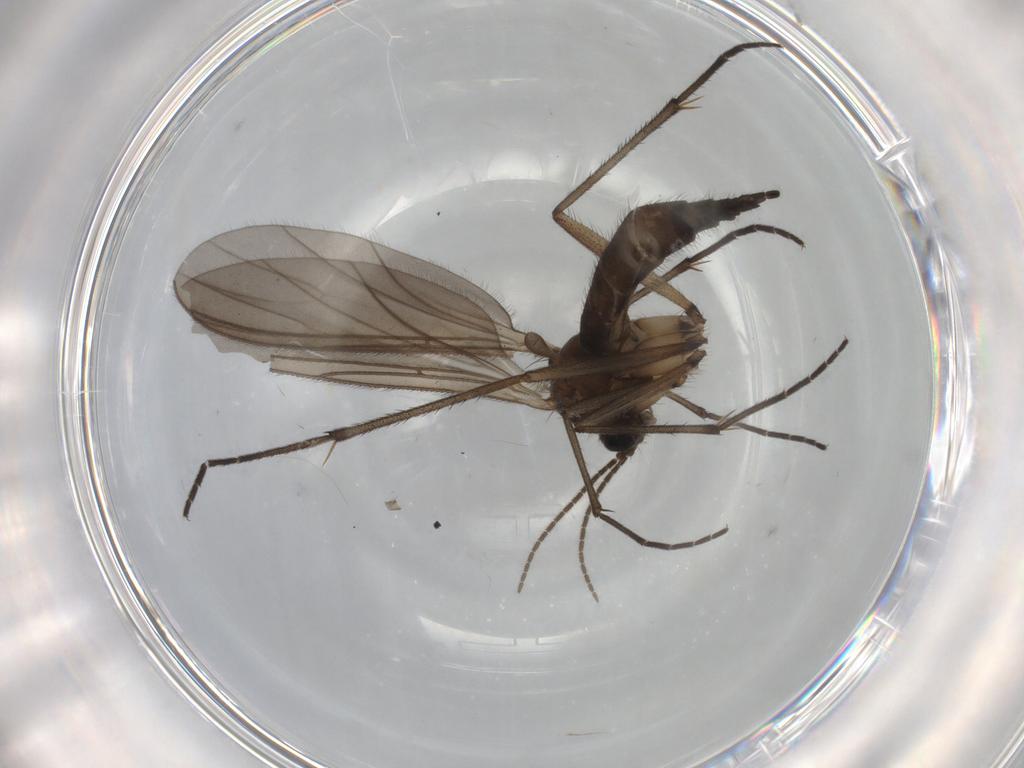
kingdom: Animalia
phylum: Arthropoda
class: Insecta
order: Diptera
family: Sciaridae
